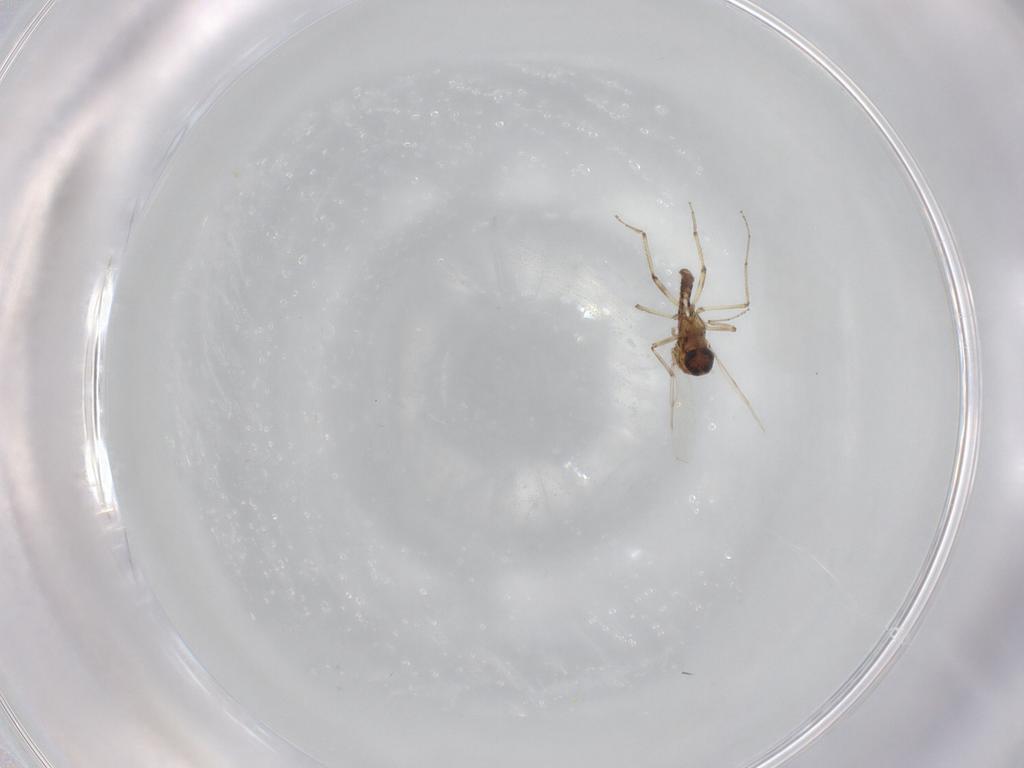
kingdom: Animalia
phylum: Arthropoda
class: Insecta
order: Diptera
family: Ceratopogonidae
